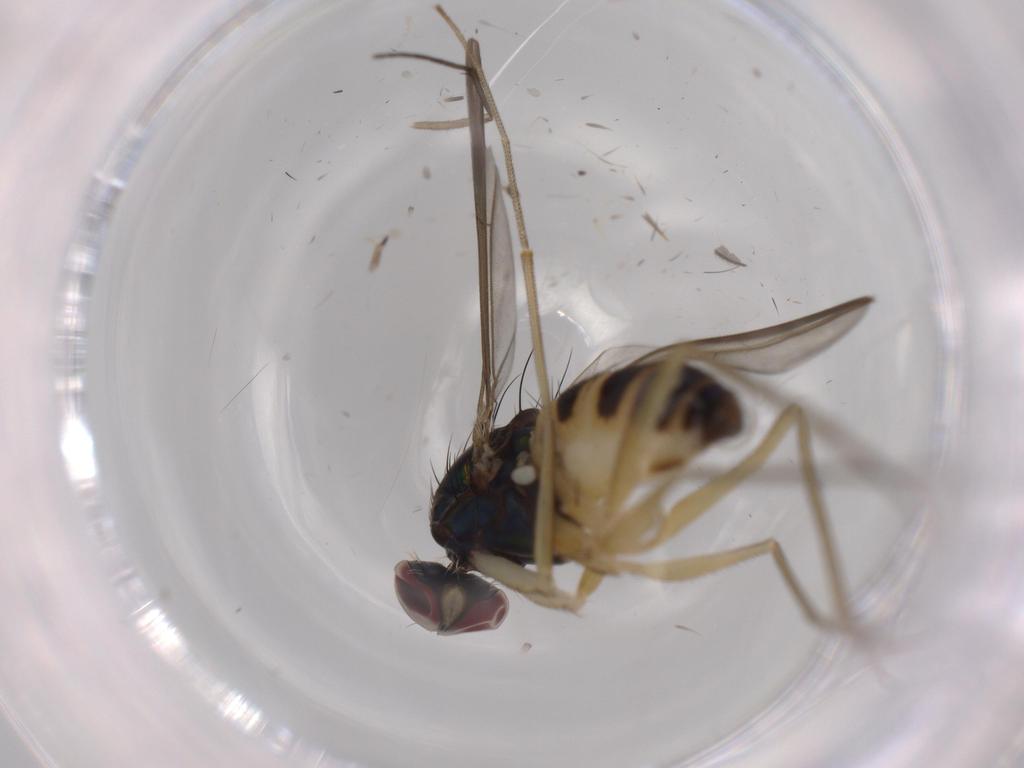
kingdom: Animalia
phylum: Arthropoda
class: Insecta
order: Diptera
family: Dolichopodidae
